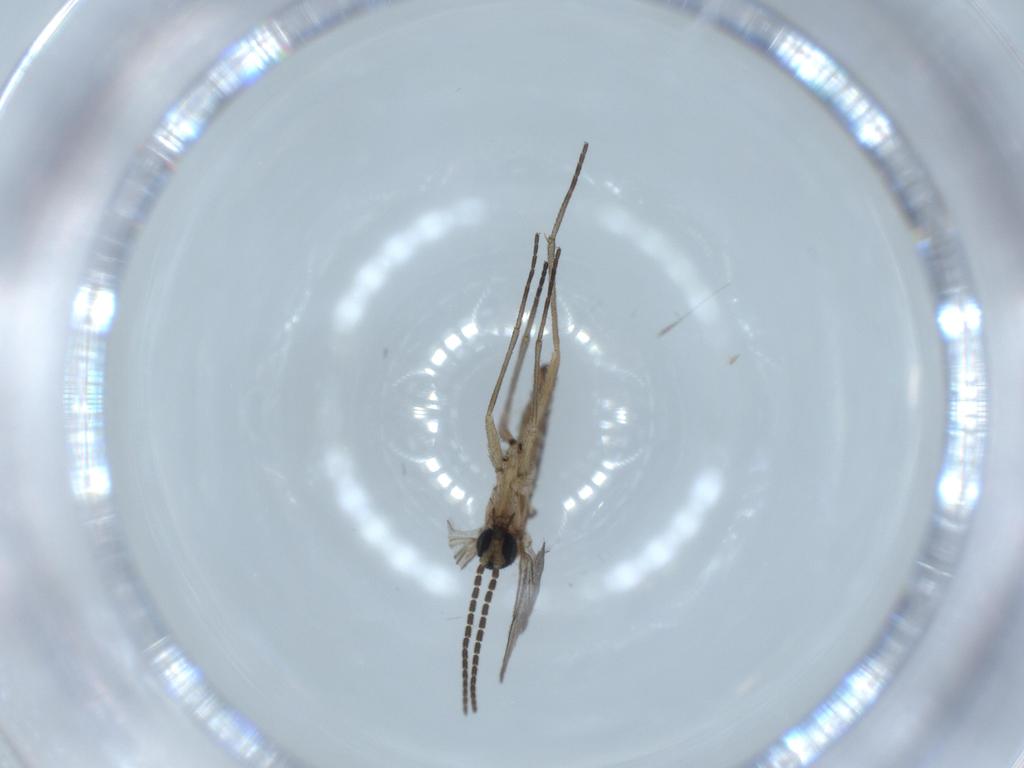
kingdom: Animalia
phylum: Arthropoda
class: Insecta
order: Diptera
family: Sciaridae
